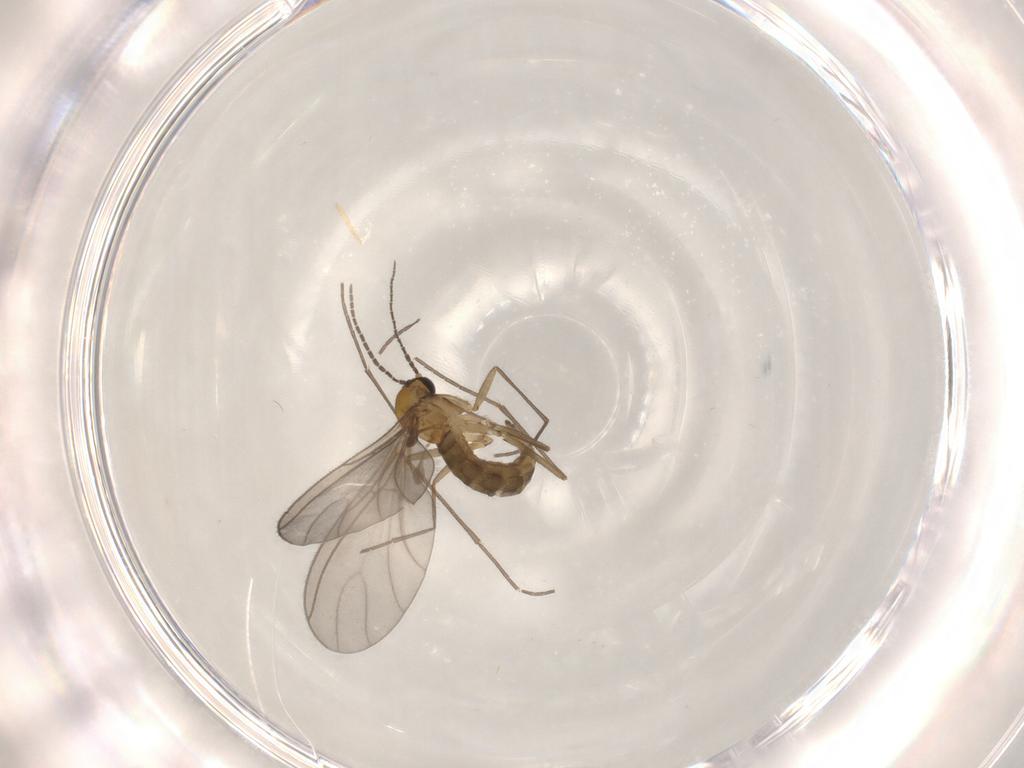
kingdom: Animalia
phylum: Arthropoda
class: Insecta
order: Diptera
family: Sciaridae
